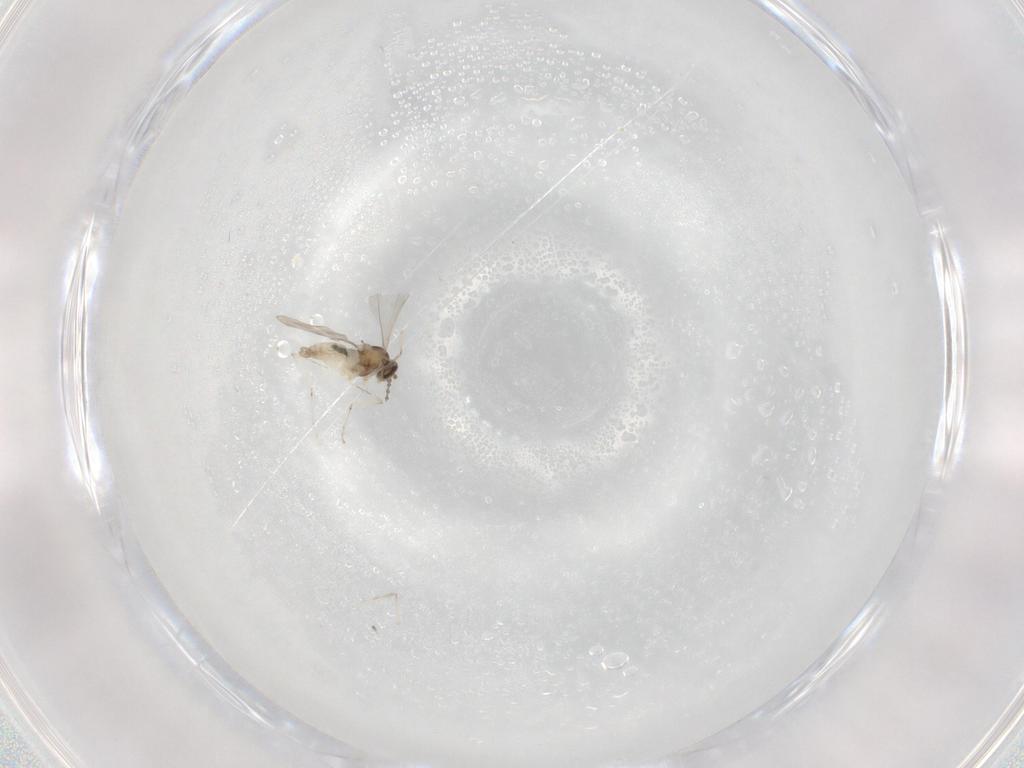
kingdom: Animalia
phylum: Arthropoda
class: Insecta
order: Diptera
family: Cecidomyiidae
